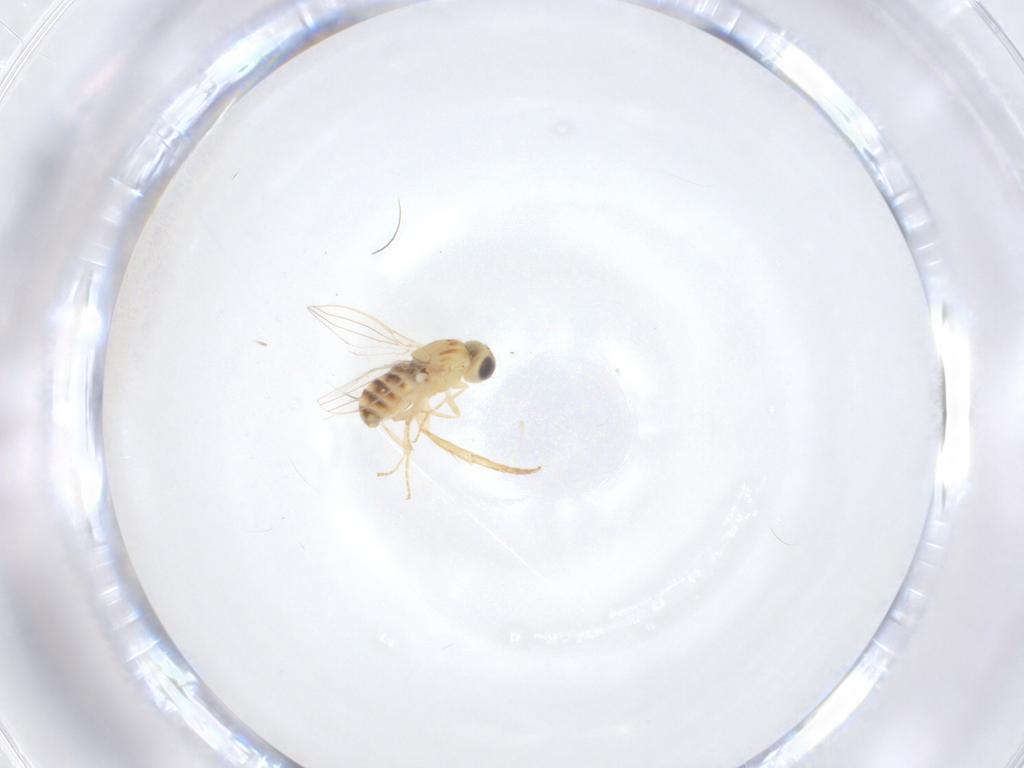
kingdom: Animalia
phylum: Arthropoda
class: Insecta
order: Diptera
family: Chloropidae
